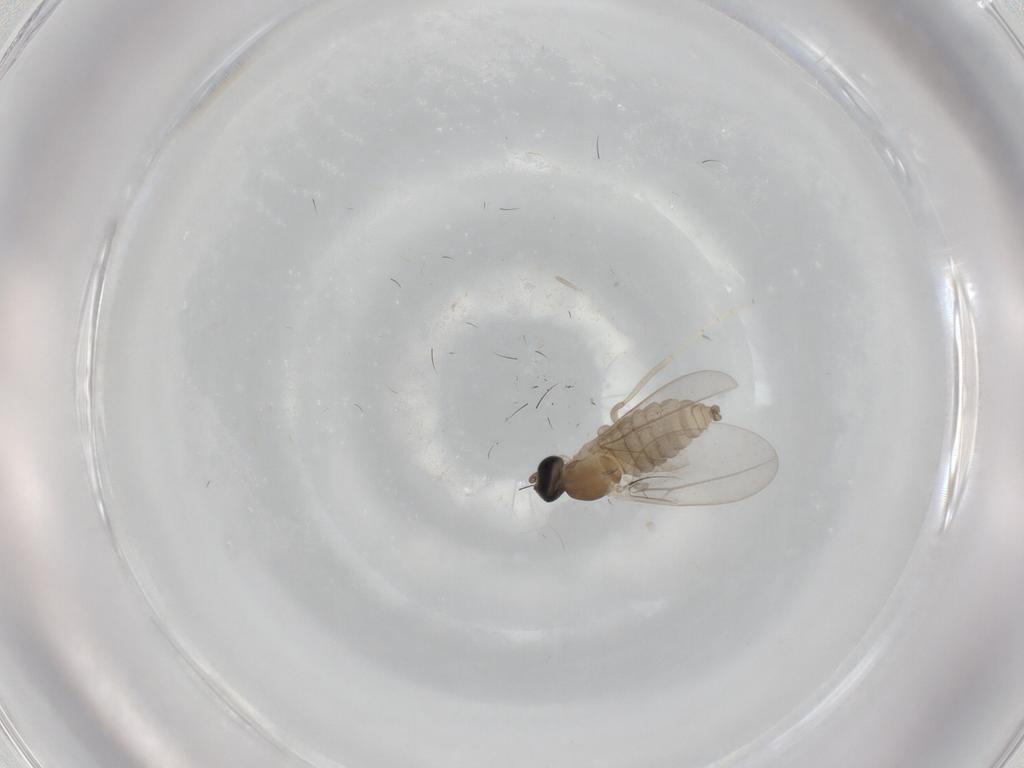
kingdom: Animalia
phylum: Arthropoda
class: Insecta
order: Diptera
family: Cecidomyiidae
